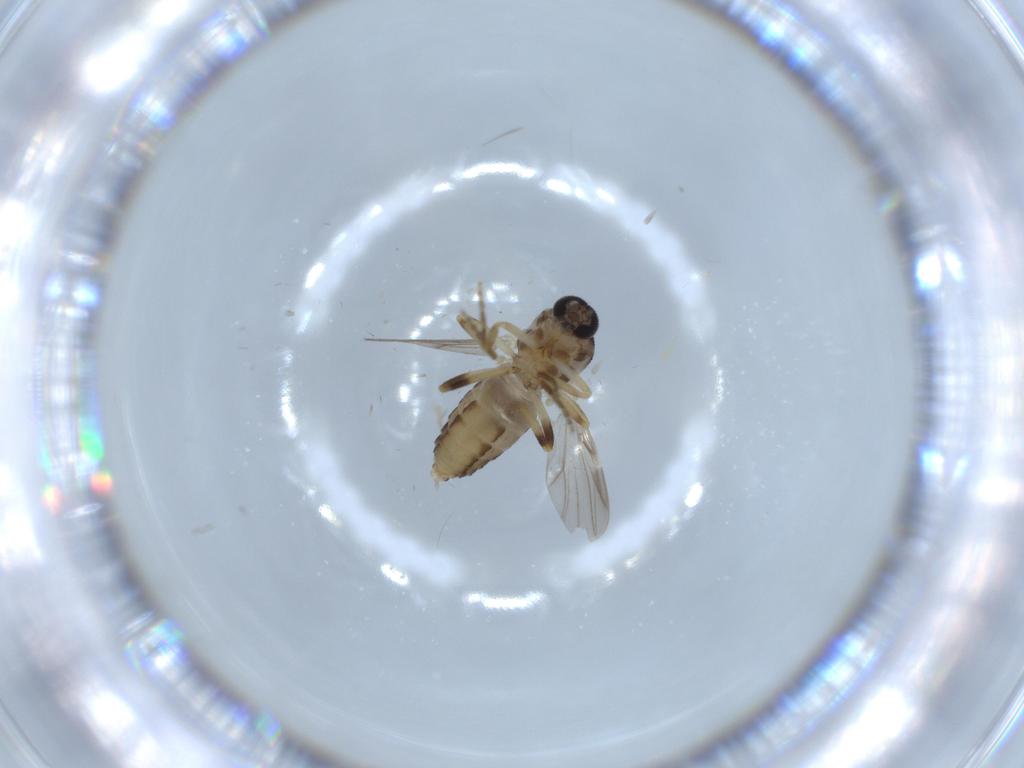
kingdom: Animalia
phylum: Arthropoda
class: Insecta
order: Diptera
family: Ceratopogonidae
